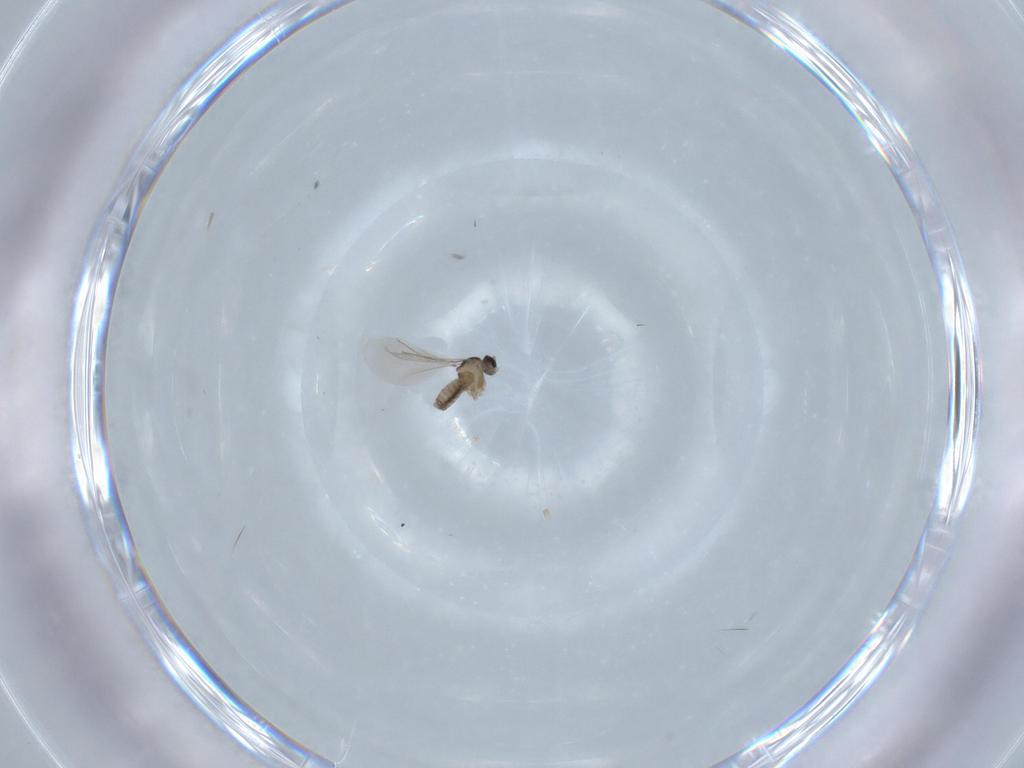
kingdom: Animalia
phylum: Arthropoda
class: Insecta
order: Diptera
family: Cecidomyiidae
